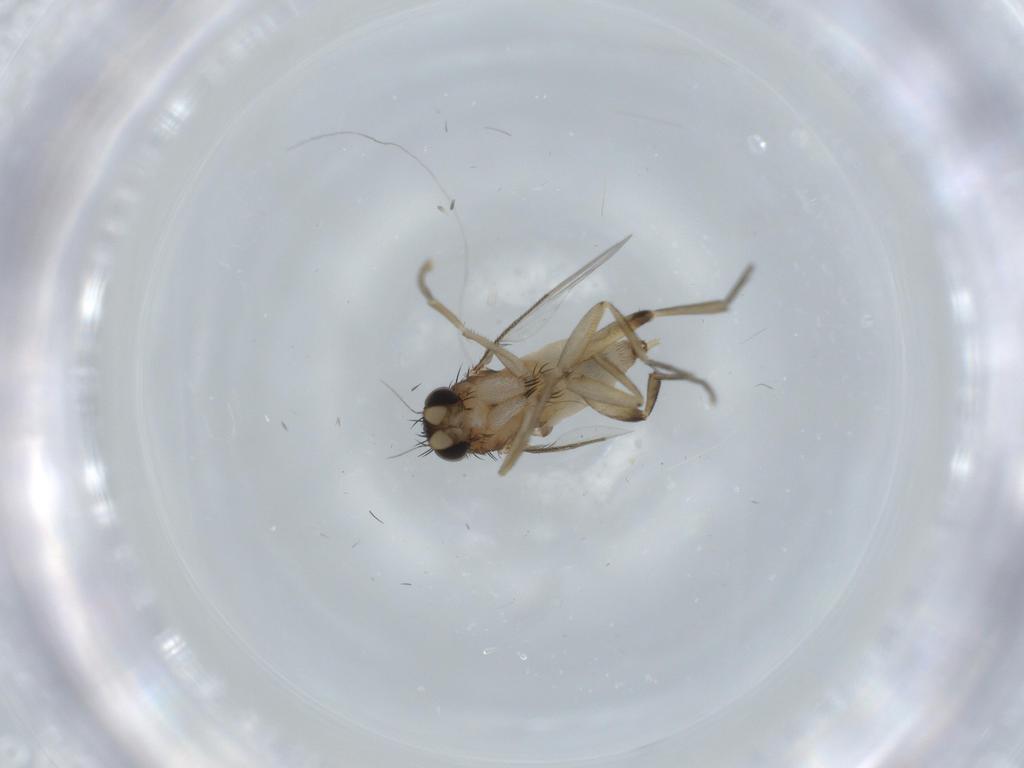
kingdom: Animalia
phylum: Arthropoda
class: Insecta
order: Diptera
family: Phoridae
